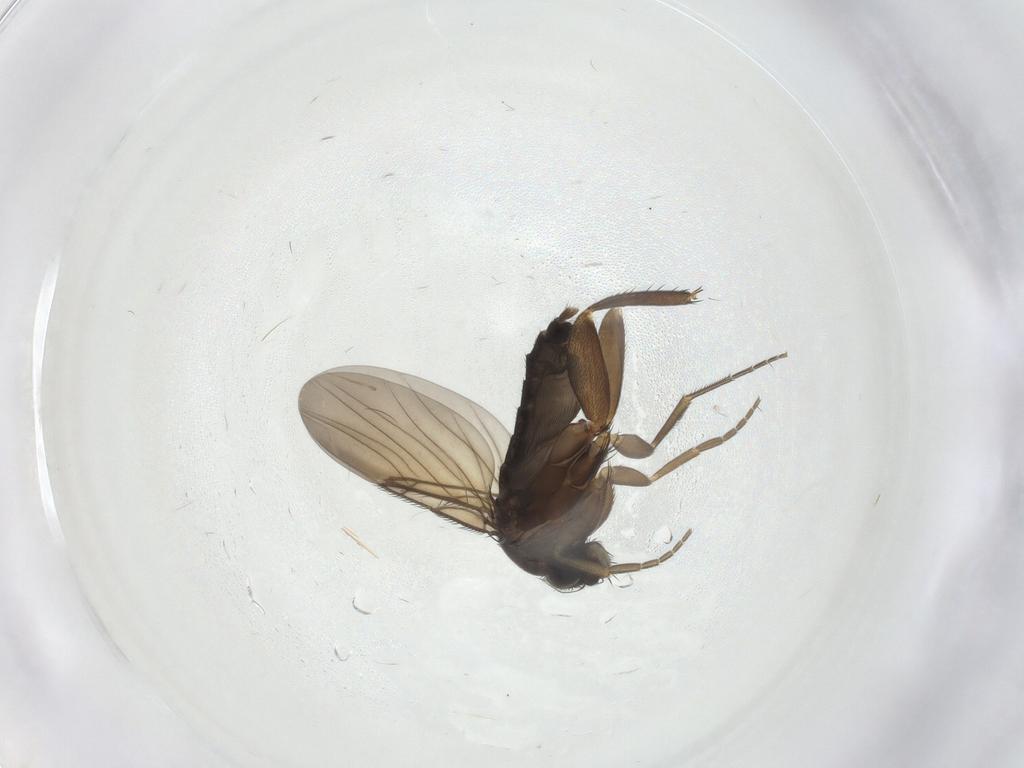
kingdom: Animalia
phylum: Arthropoda
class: Insecta
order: Diptera
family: Phoridae
